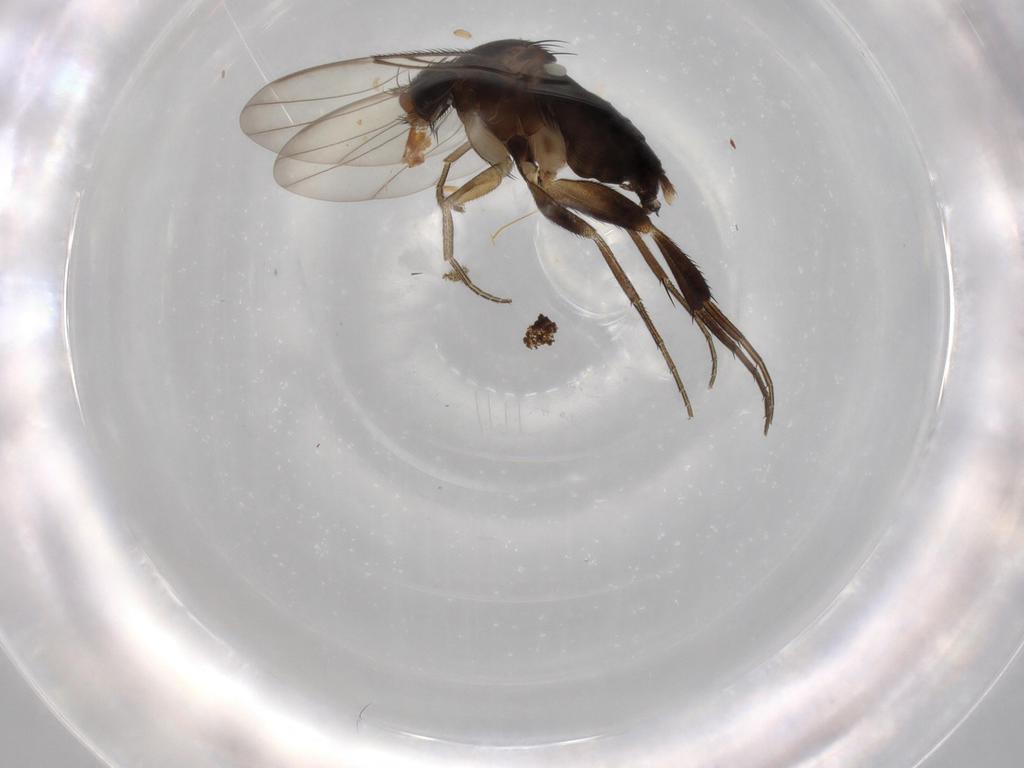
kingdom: Animalia
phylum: Arthropoda
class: Insecta
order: Diptera
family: Phoridae
